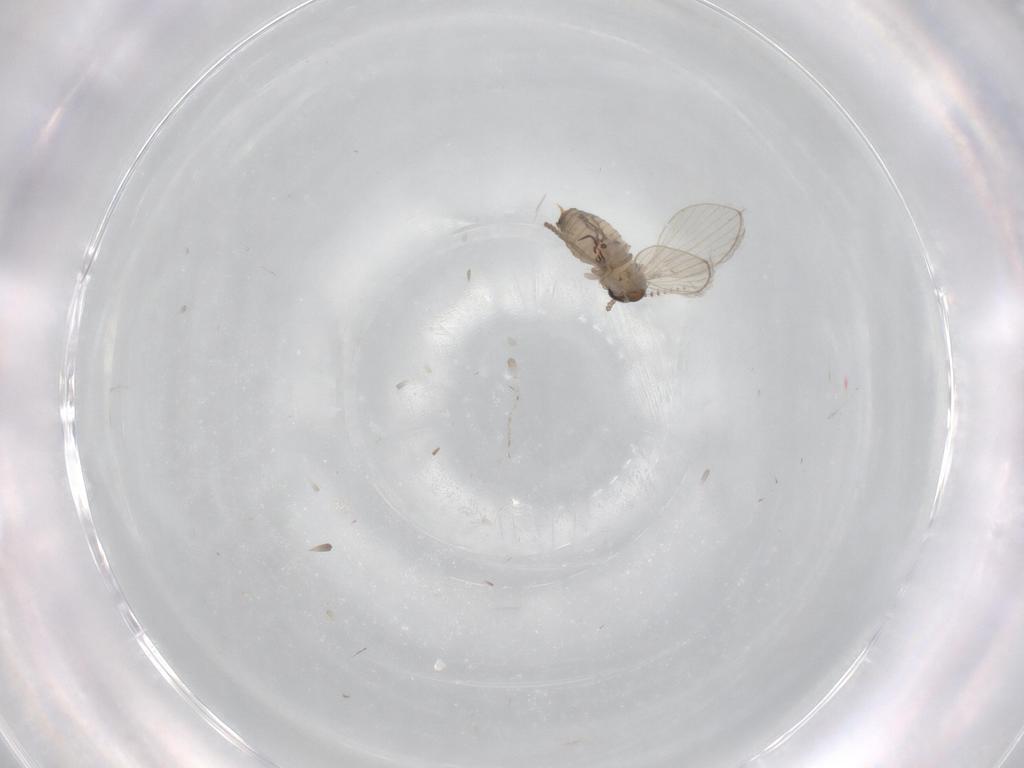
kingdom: Animalia
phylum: Arthropoda
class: Insecta
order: Diptera
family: Psychodidae
